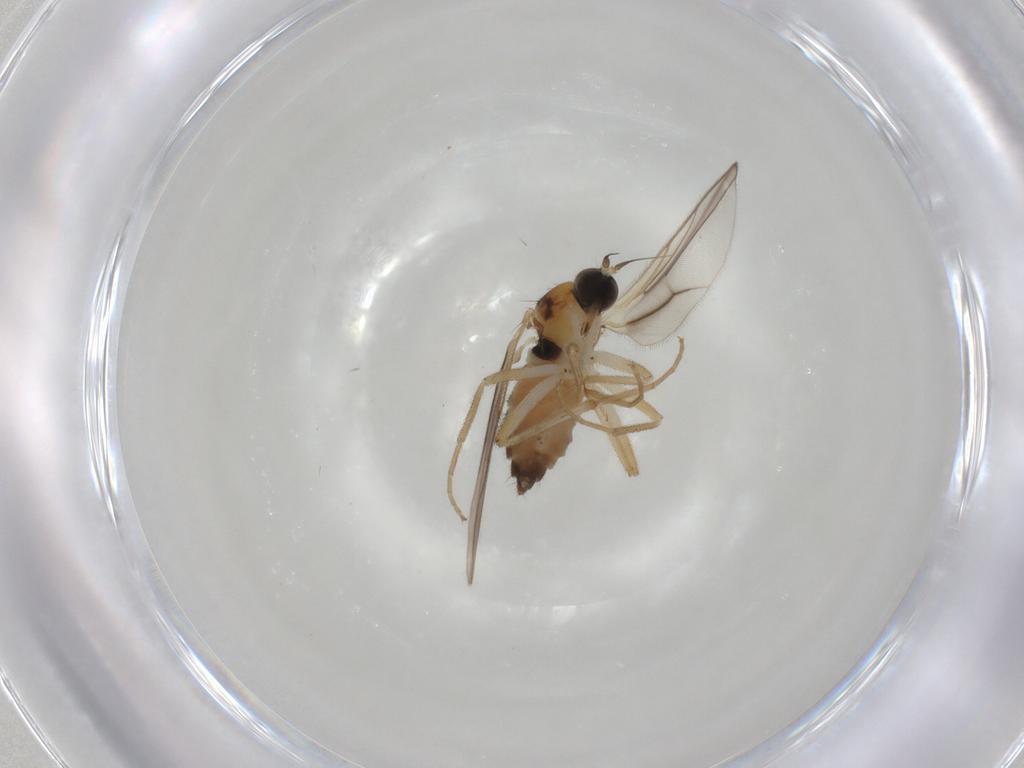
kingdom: Animalia
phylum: Arthropoda
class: Insecta
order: Diptera
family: Hybotidae
